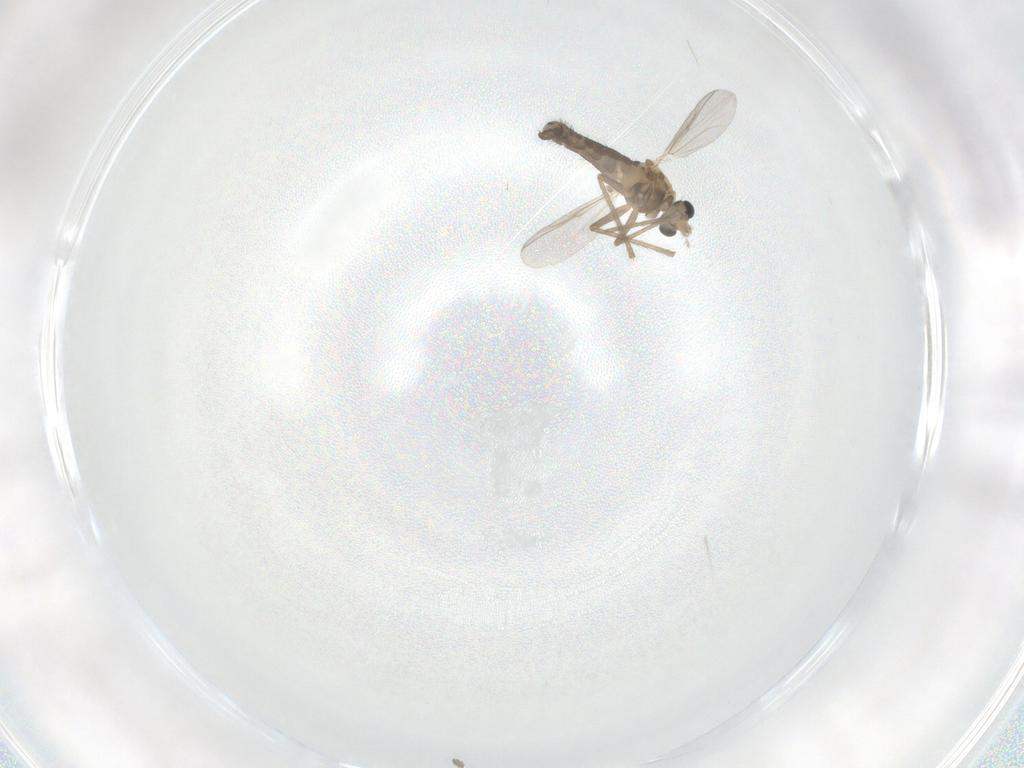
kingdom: Animalia
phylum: Arthropoda
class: Insecta
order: Diptera
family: Chironomidae
